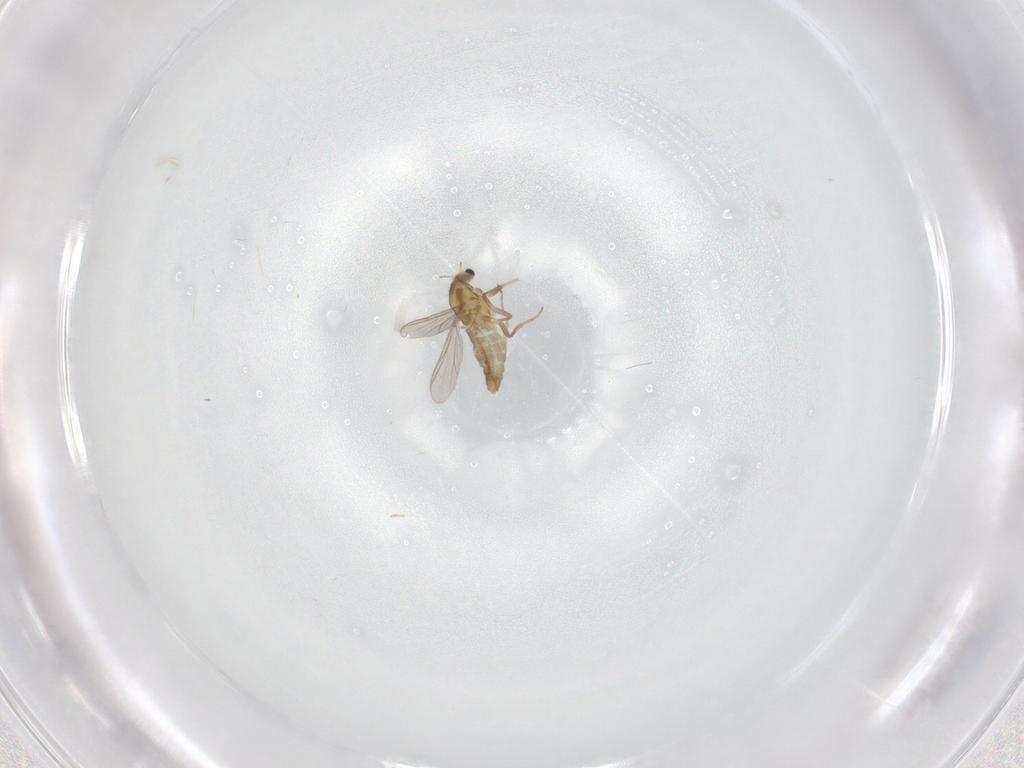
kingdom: Animalia
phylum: Arthropoda
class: Insecta
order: Diptera
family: Chironomidae
